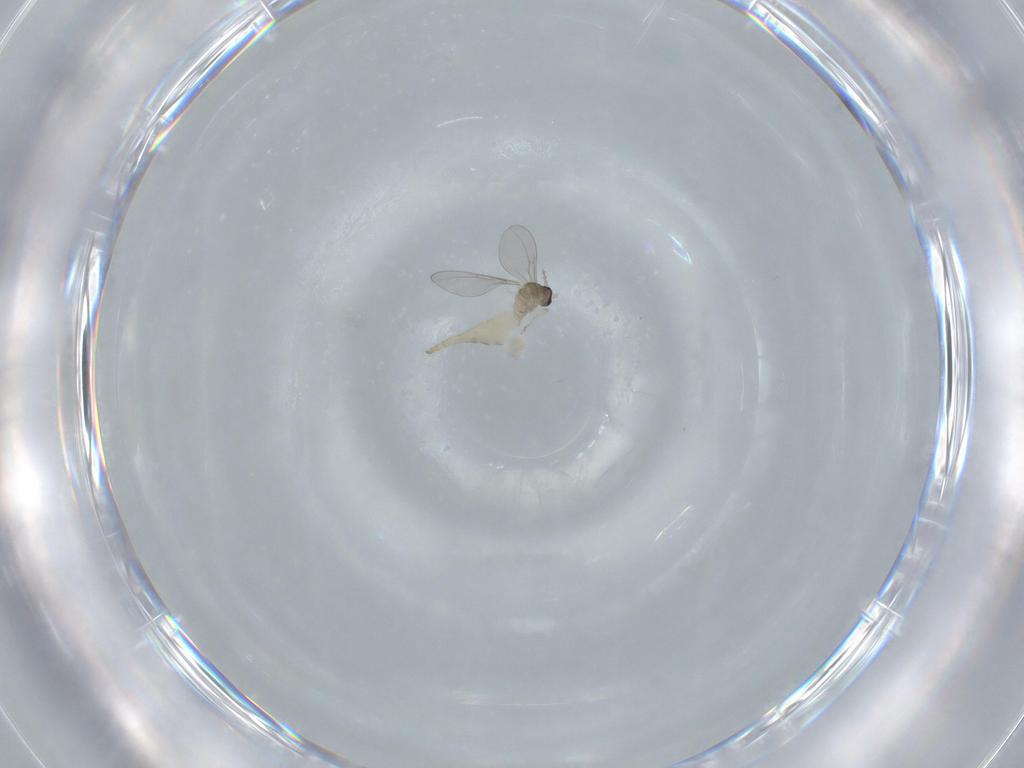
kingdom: Animalia
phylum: Arthropoda
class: Insecta
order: Diptera
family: Cecidomyiidae
